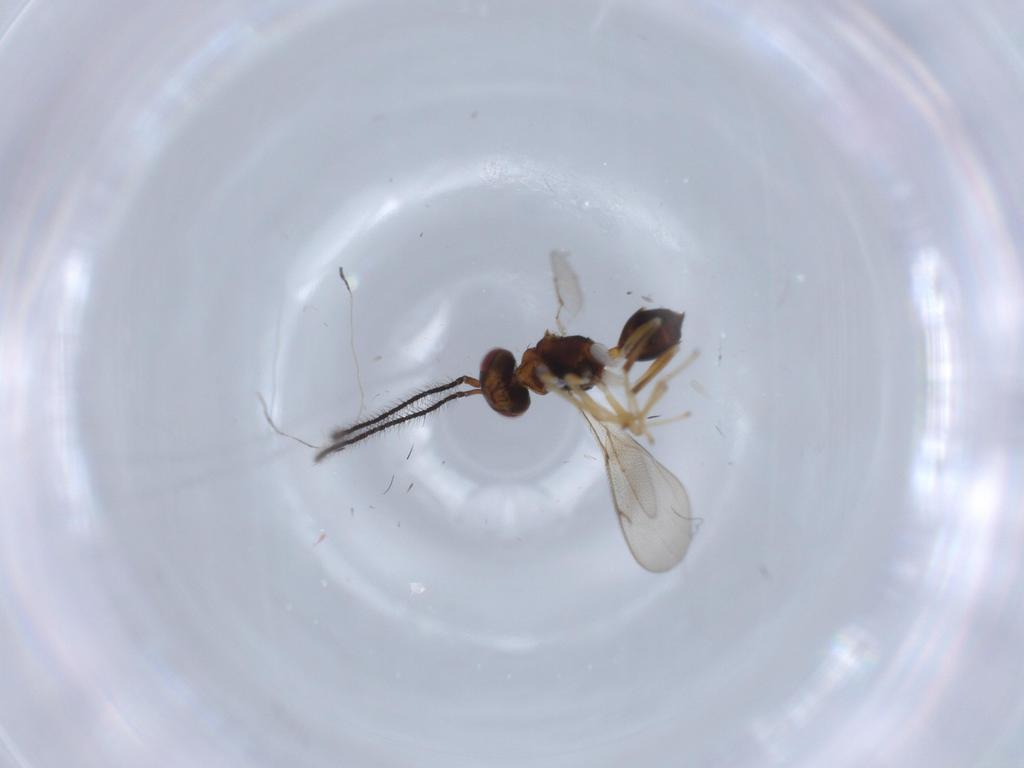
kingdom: Animalia
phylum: Arthropoda
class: Insecta
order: Hymenoptera
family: Diparidae
